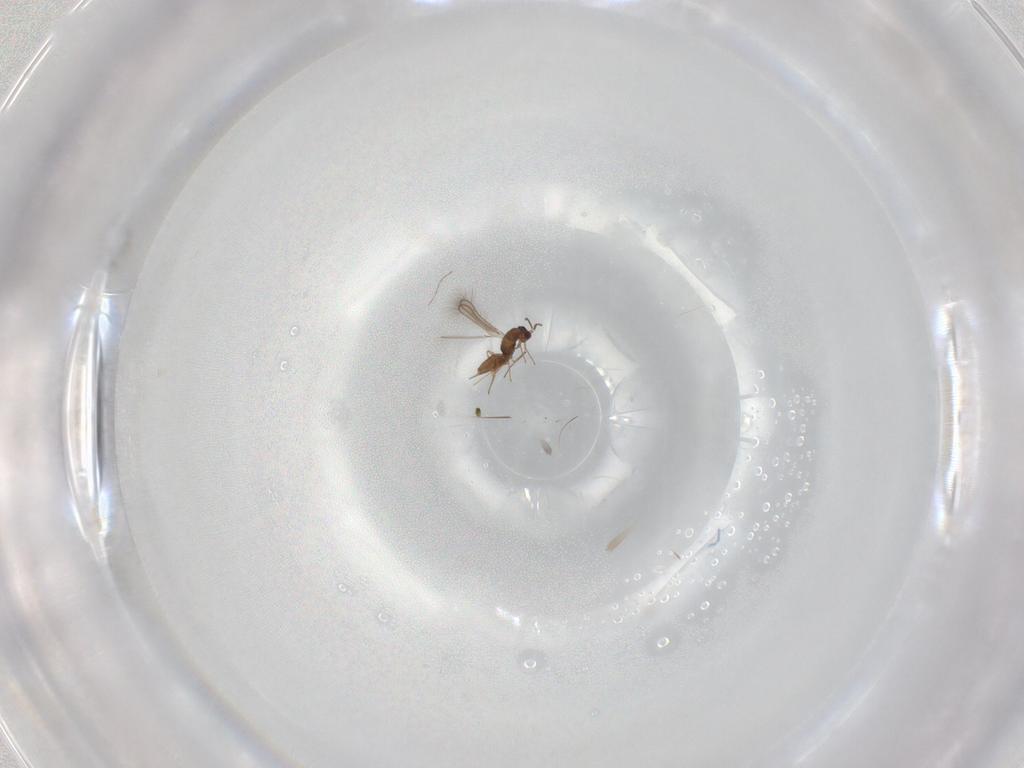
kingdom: Animalia
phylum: Arthropoda
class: Insecta
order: Hymenoptera
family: Mymaridae
